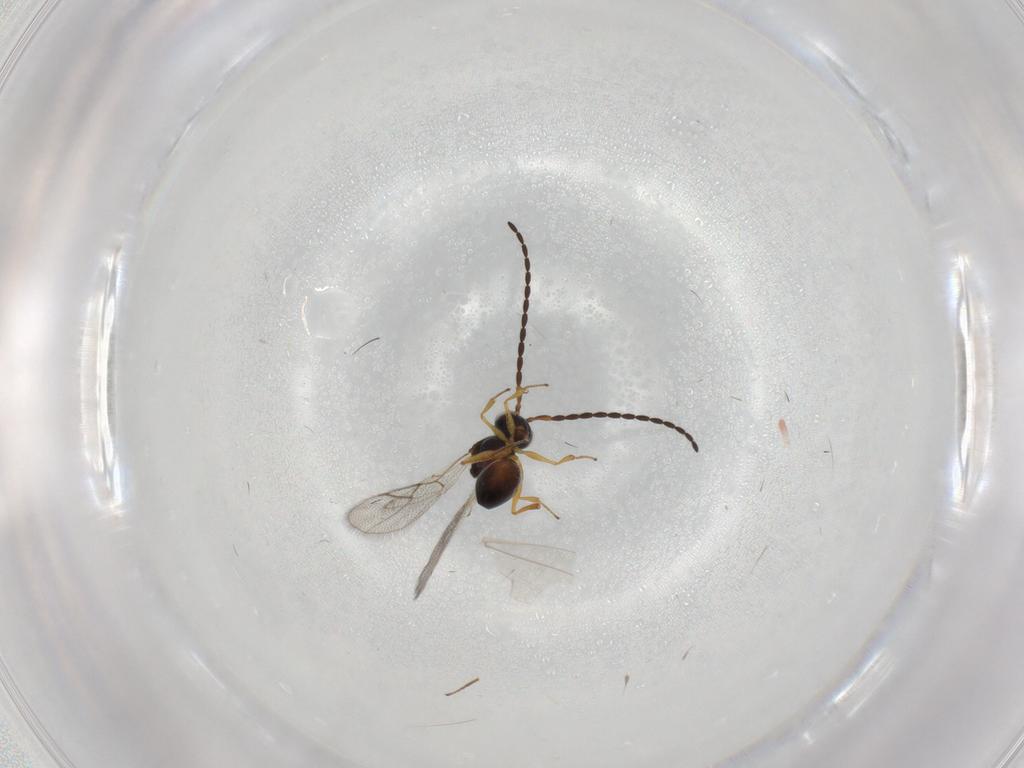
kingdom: Animalia
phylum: Arthropoda
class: Insecta
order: Hymenoptera
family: Figitidae
